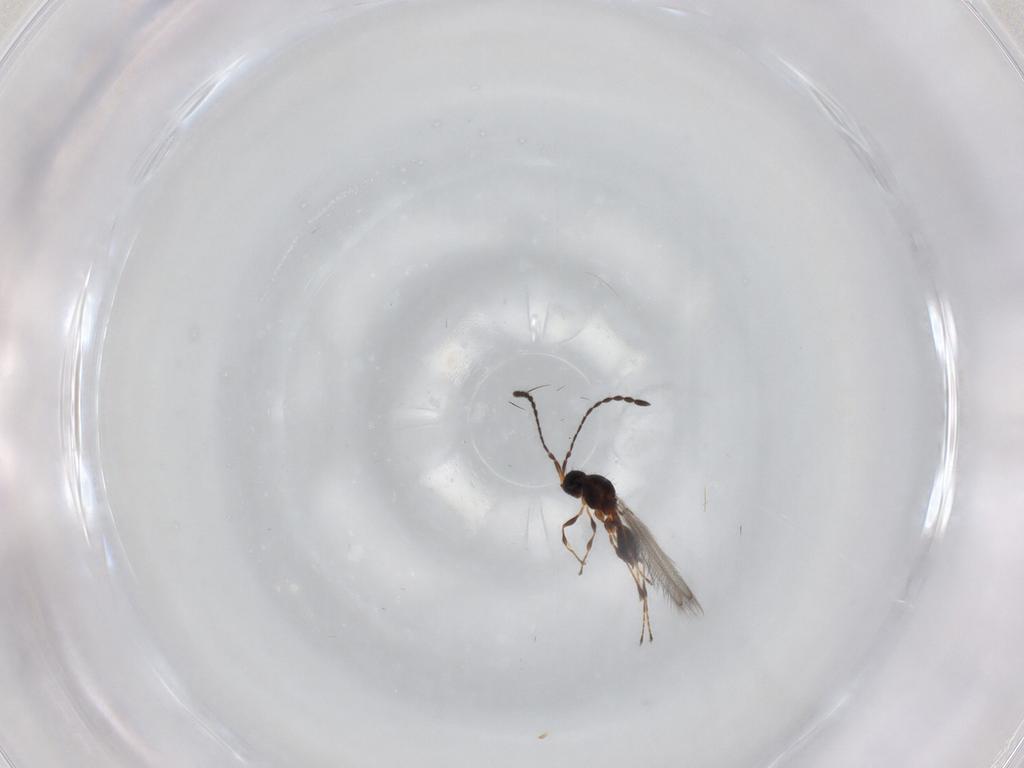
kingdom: Animalia
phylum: Arthropoda
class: Insecta
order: Hymenoptera
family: Diapriidae
